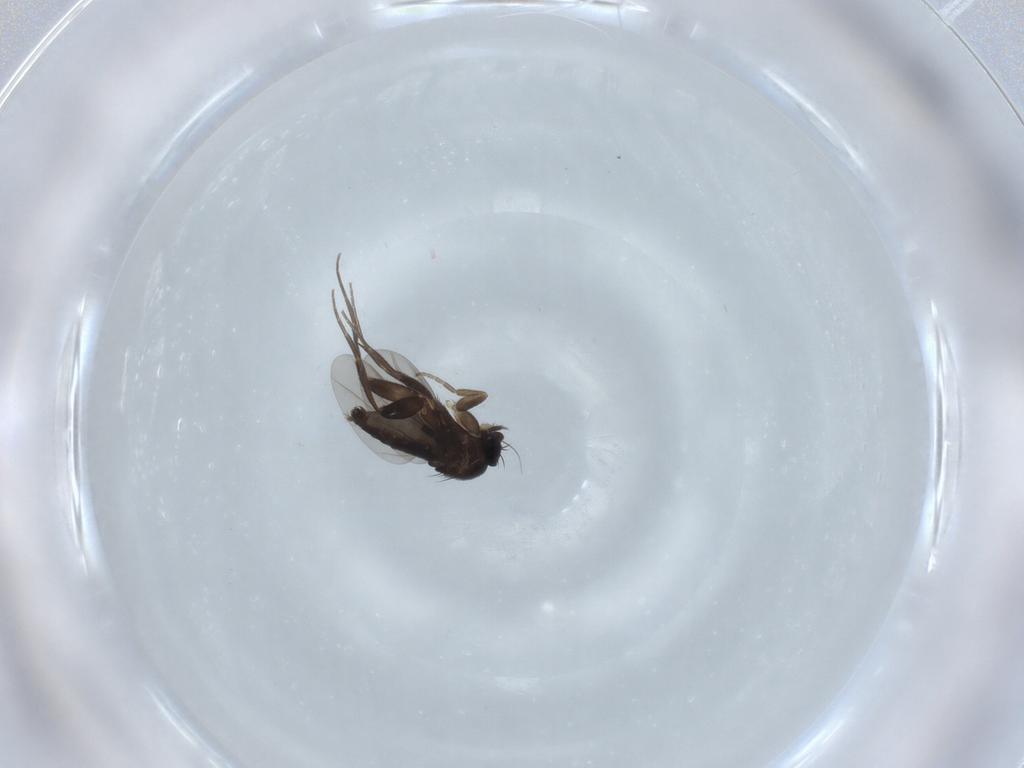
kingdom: Animalia
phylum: Arthropoda
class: Insecta
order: Diptera
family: Phoridae
